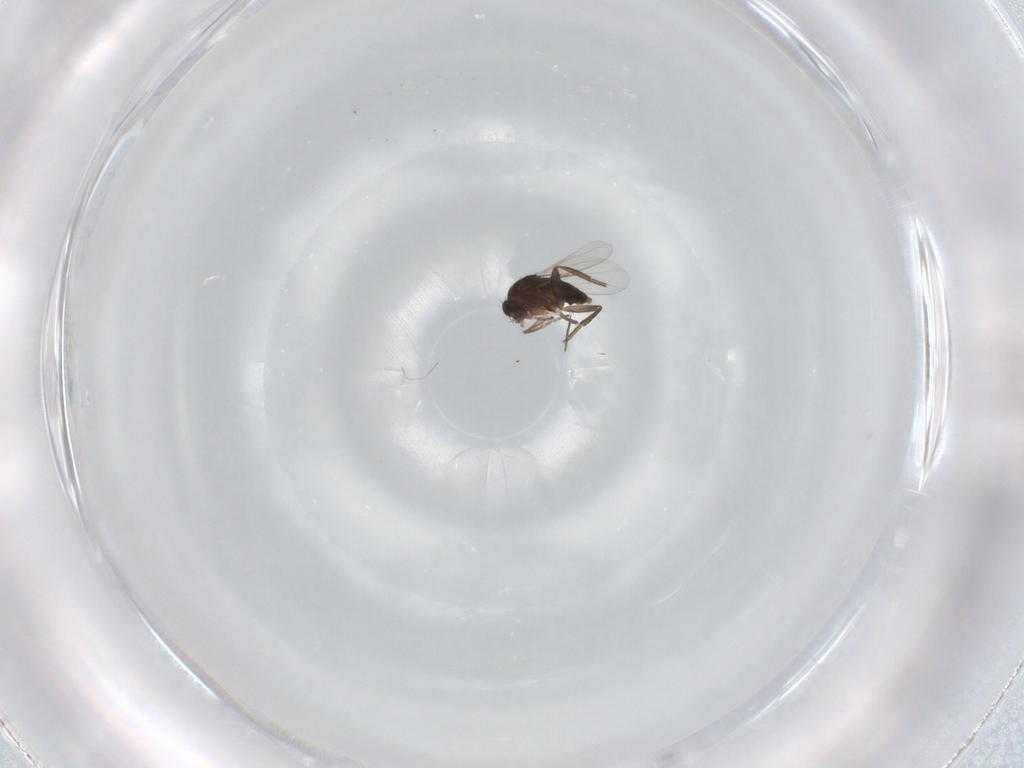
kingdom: Animalia
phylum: Arthropoda
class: Insecta
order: Diptera
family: Phoridae
